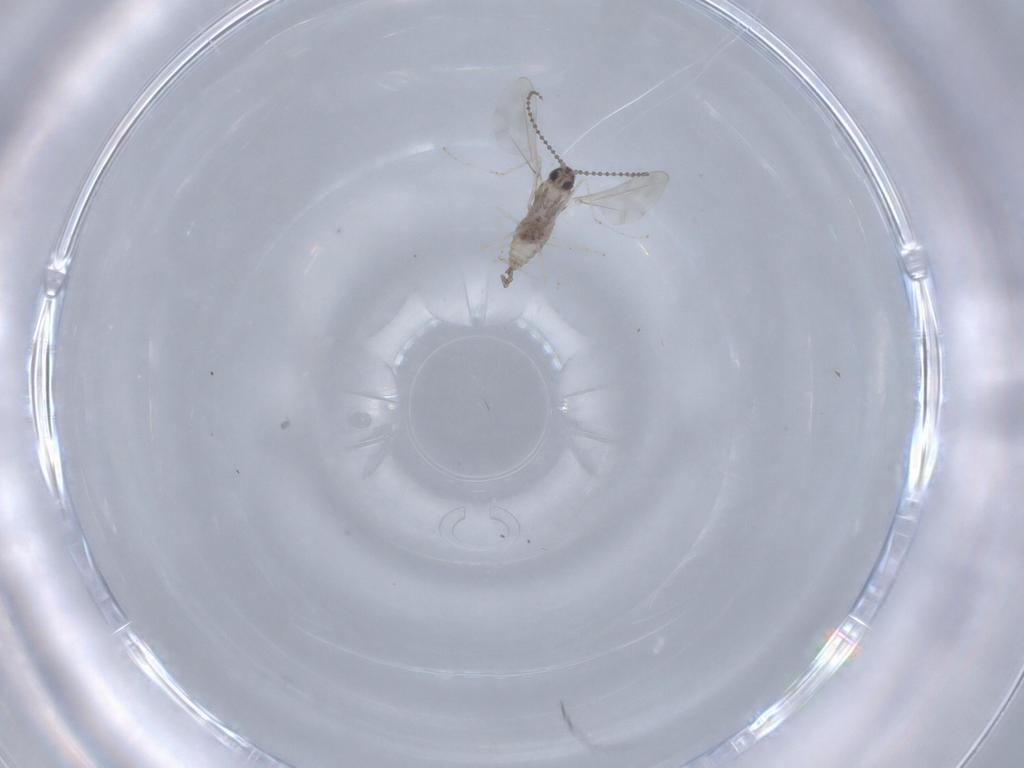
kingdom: Animalia
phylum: Arthropoda
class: Insecta
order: Diptera
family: Cecidomyiidae
